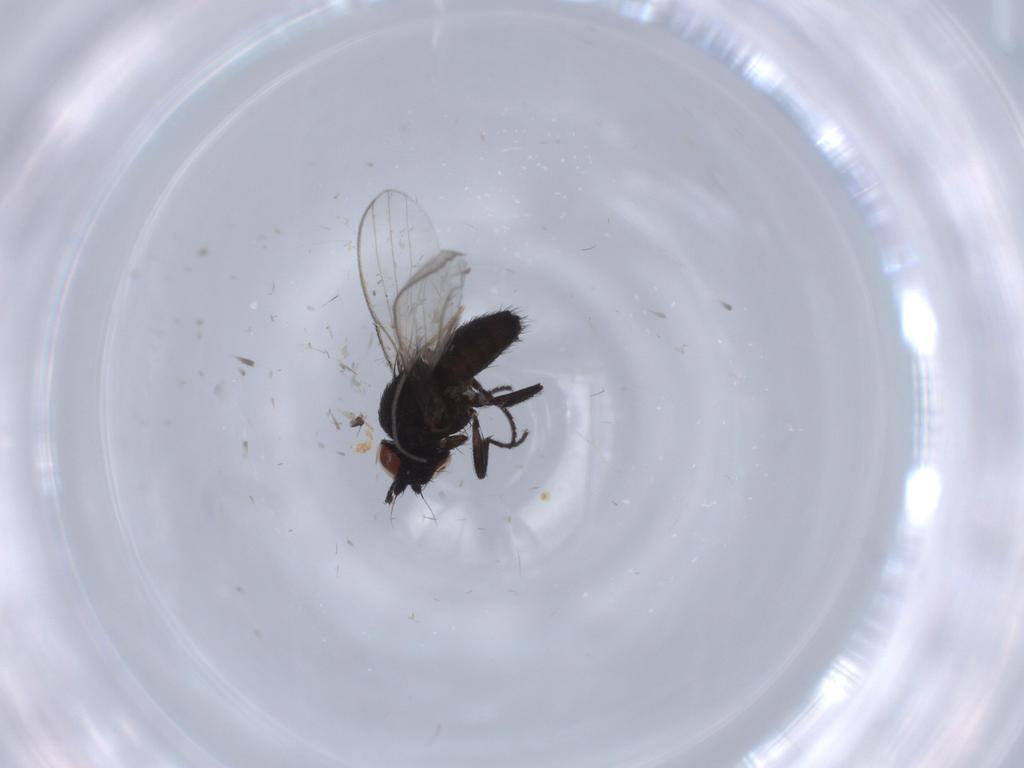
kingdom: Animalia
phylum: Arthropoda
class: Insecta
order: Diptera
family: Milichiidae
